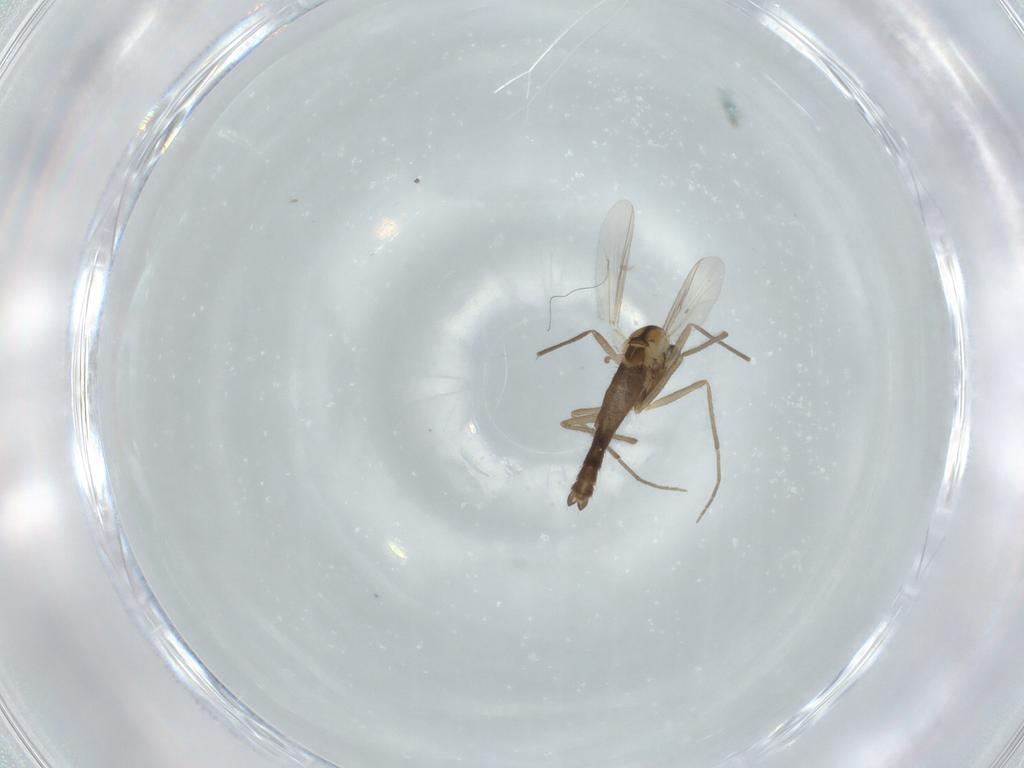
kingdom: Animalia
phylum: Arthropoda
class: Insecta
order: Diptera
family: Chironomidae
